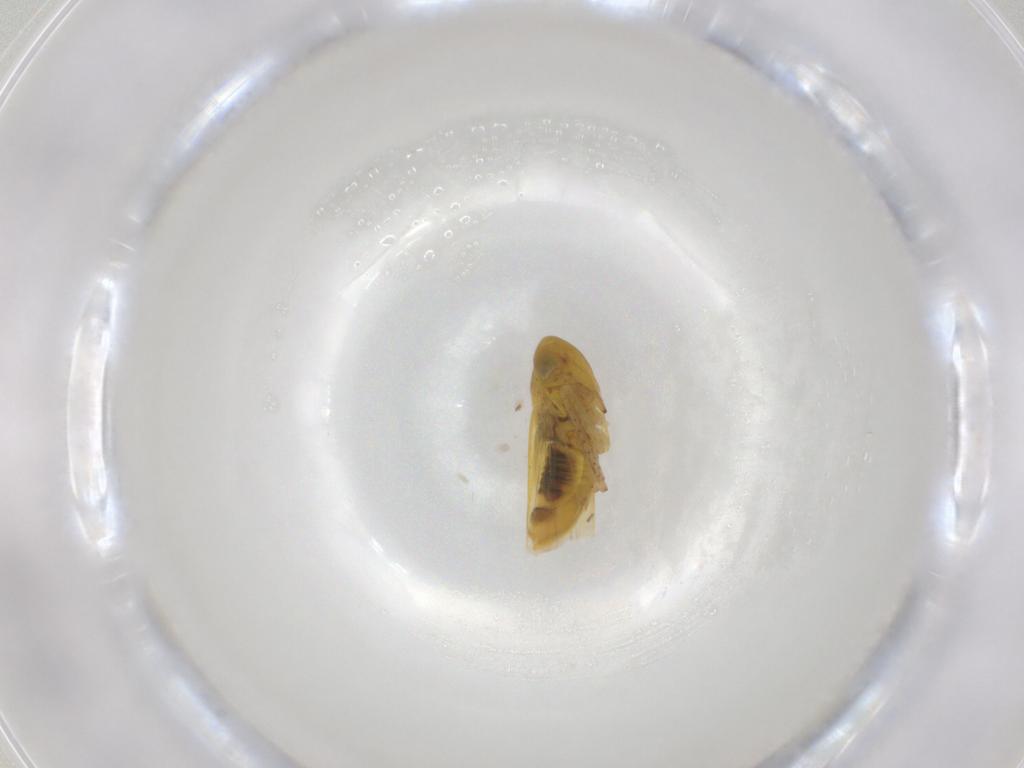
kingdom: Animalia
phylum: Arthropoda
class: Insecta
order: Hemiptera
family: Cicadellidae
